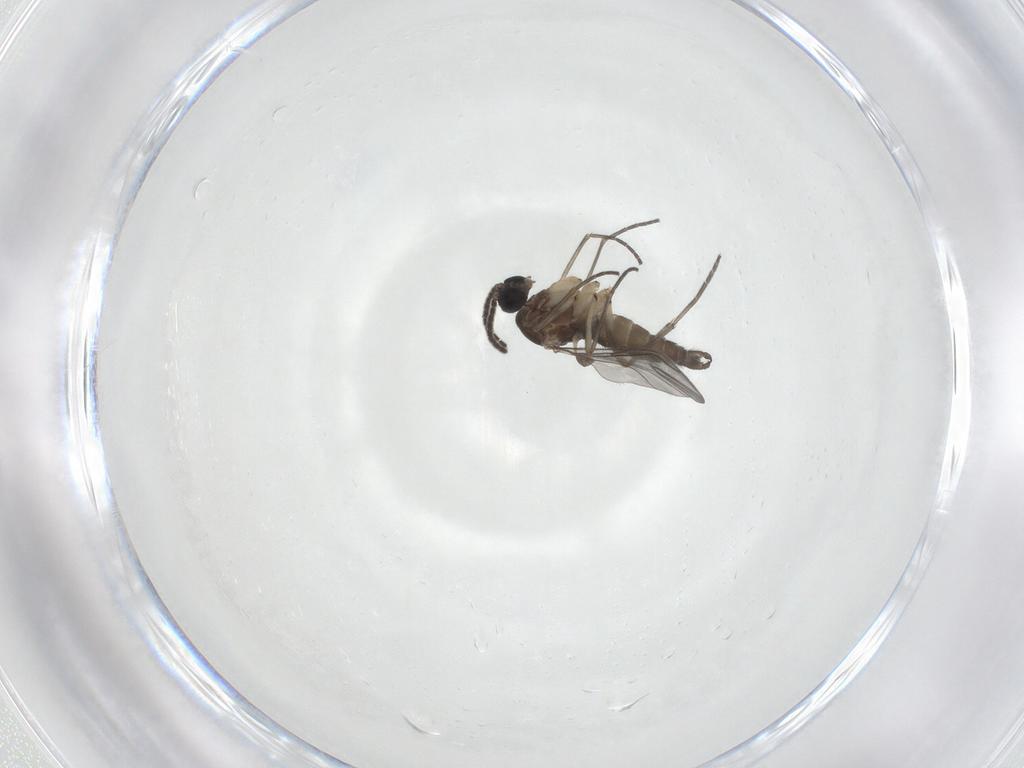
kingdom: Animalia
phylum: Arthropoda
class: Insecta
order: Diptera
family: Sciaridae
